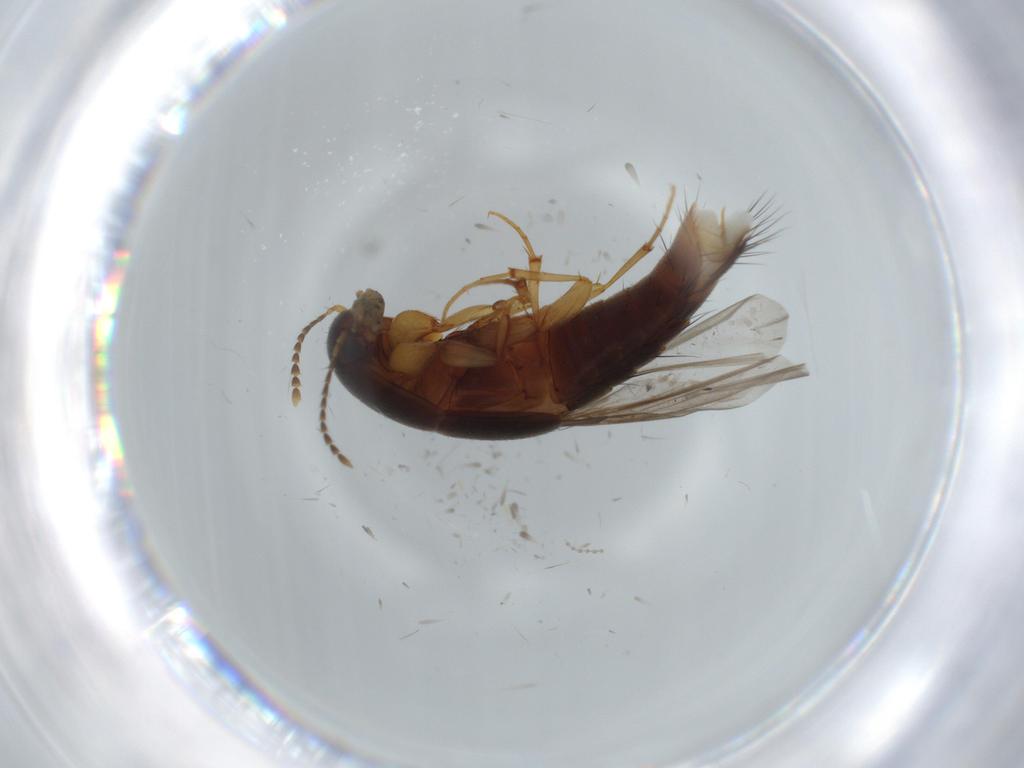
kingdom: Animalia
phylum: Arthropoda
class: Insecta
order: Coleoptera
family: Staphylinidae
